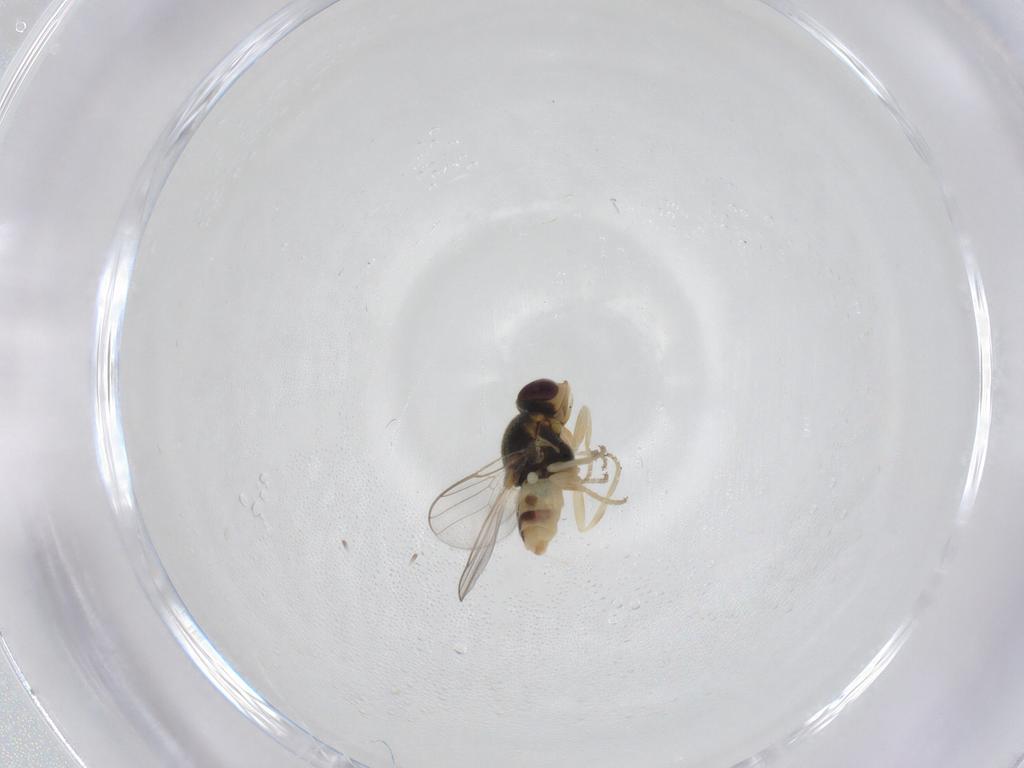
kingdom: Animalia
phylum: Arthropoda
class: Insecta
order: Diptera
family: Chloropidae
